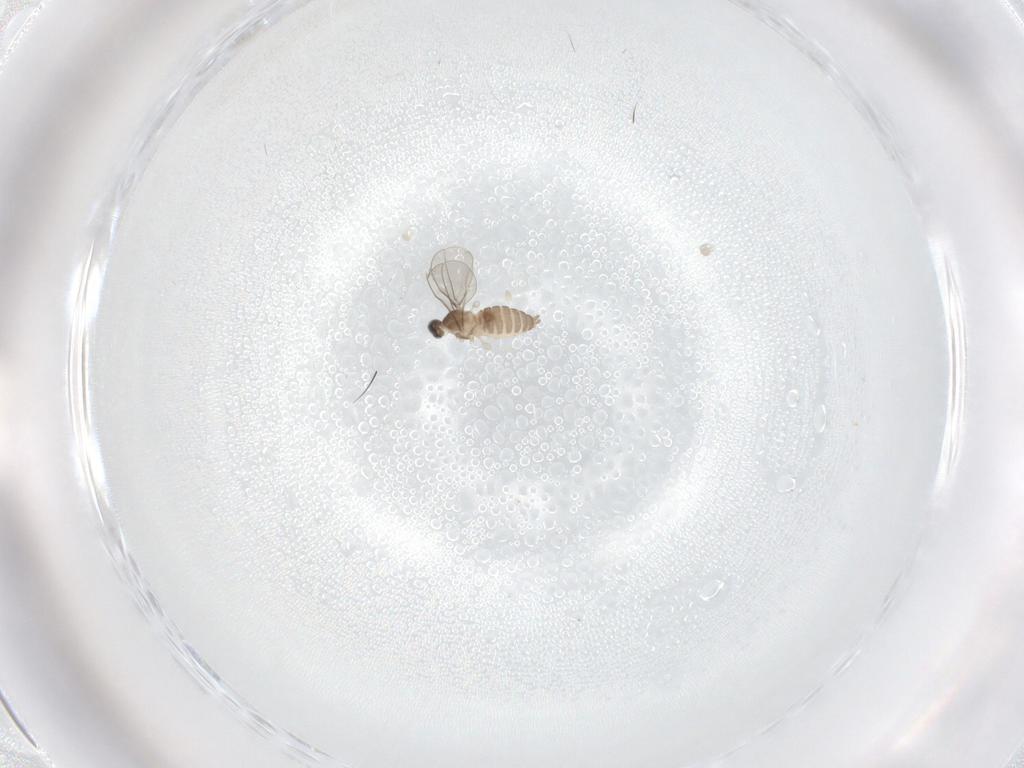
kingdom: Animalia
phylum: Arthropoda
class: Insecta
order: Diptera
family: Cecidomyiidae
